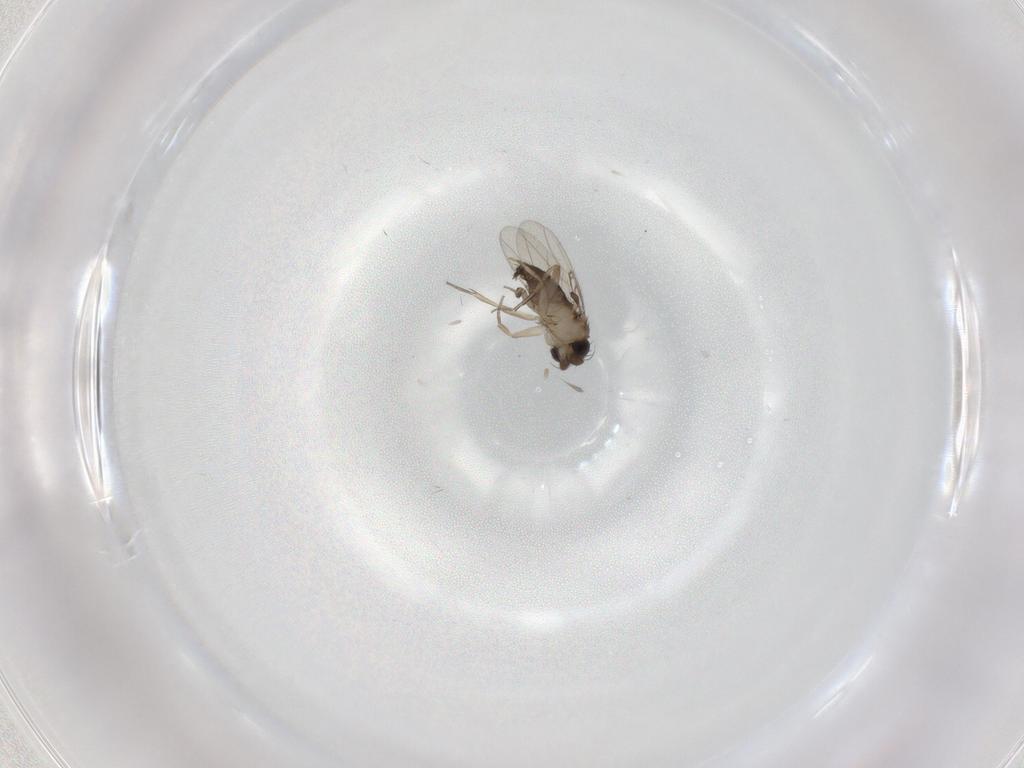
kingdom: Animalia
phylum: Arthropoda
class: Insecta
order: Diptera
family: Phoridae
